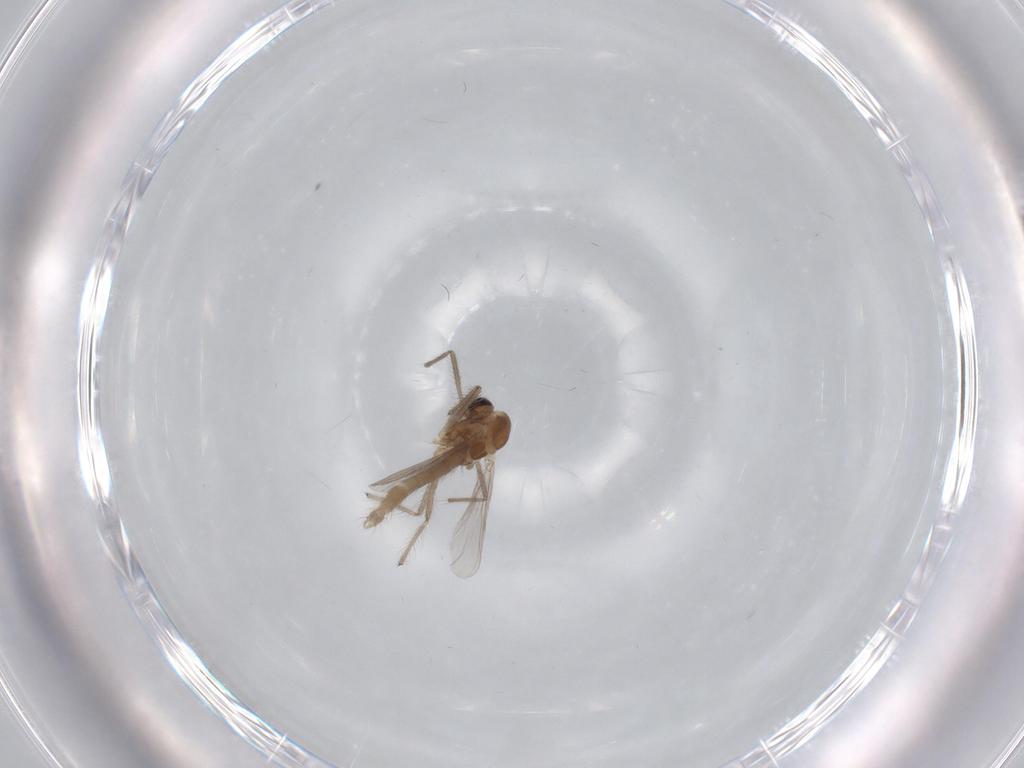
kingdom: Animalia
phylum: Arthropoda
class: Insecta
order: Diptera
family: Chironomidae
